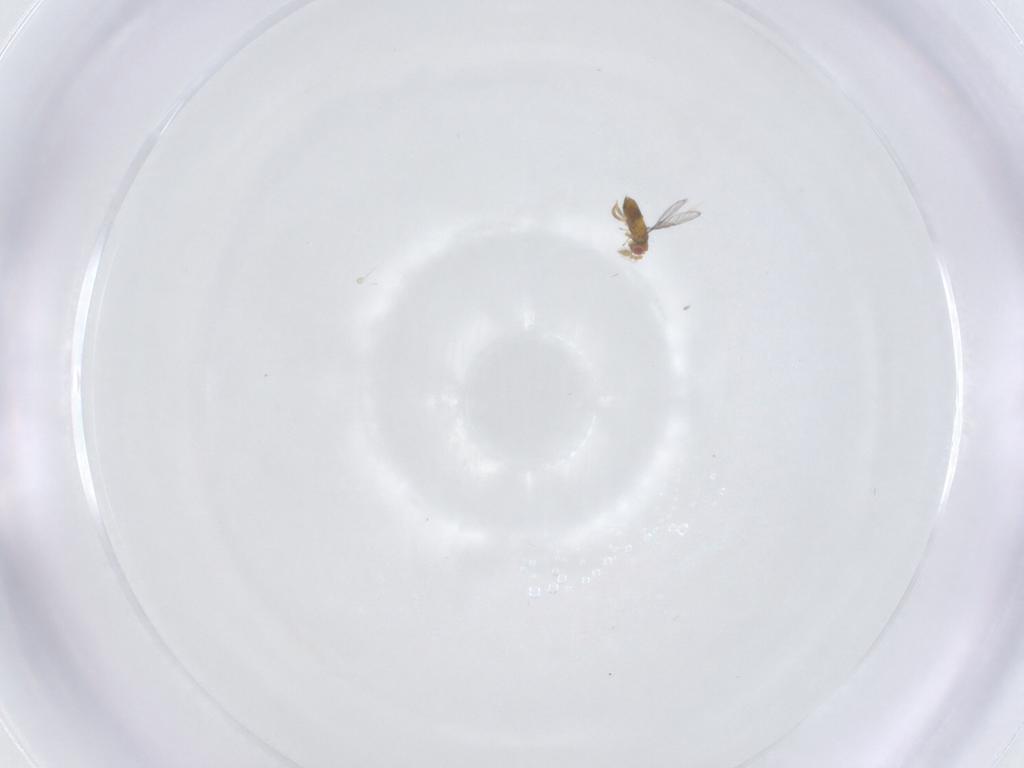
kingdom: Animalia
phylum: Arthropoda
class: Insecta
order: Hymenoptera
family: Trichogrammatidae
